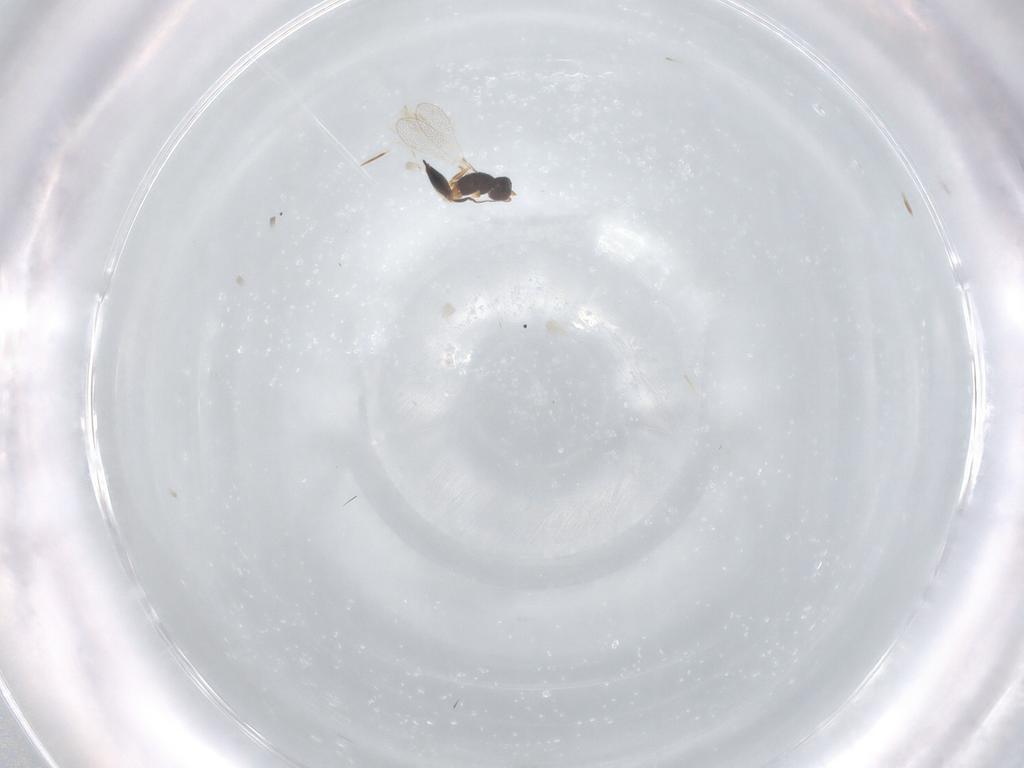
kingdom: Animalia
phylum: Arthropoda
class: Insecta
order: Hymenoptera
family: Mymaridae
